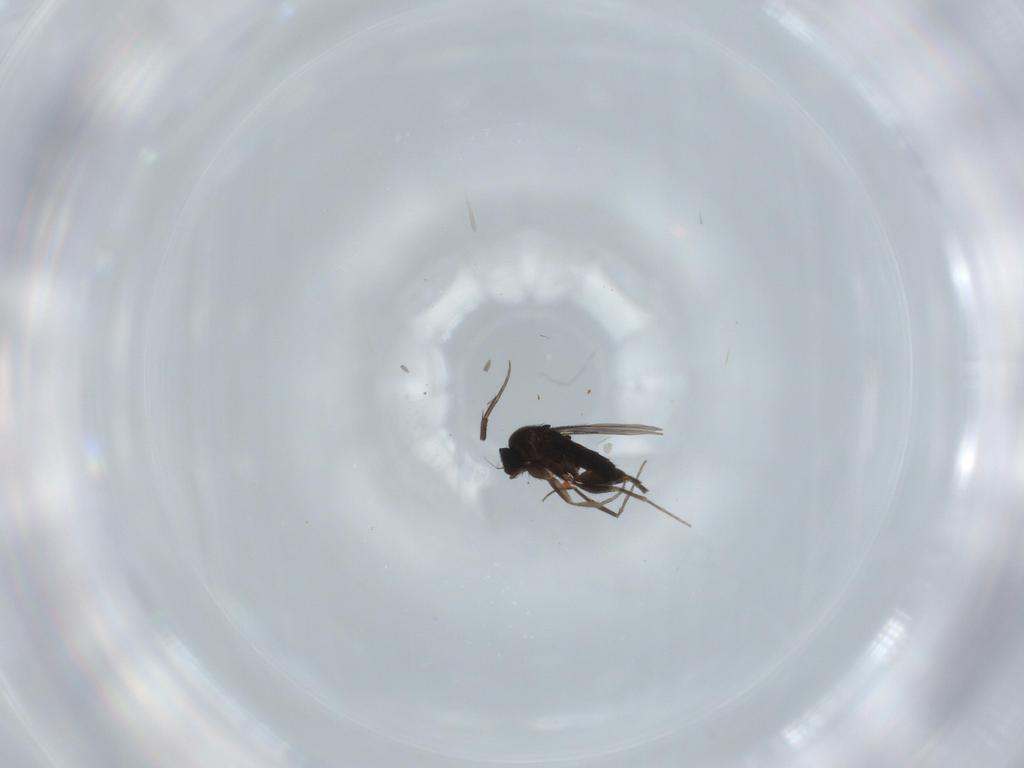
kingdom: Animalia
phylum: Arthropoda
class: Insecta
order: Diptera
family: Phoridae
